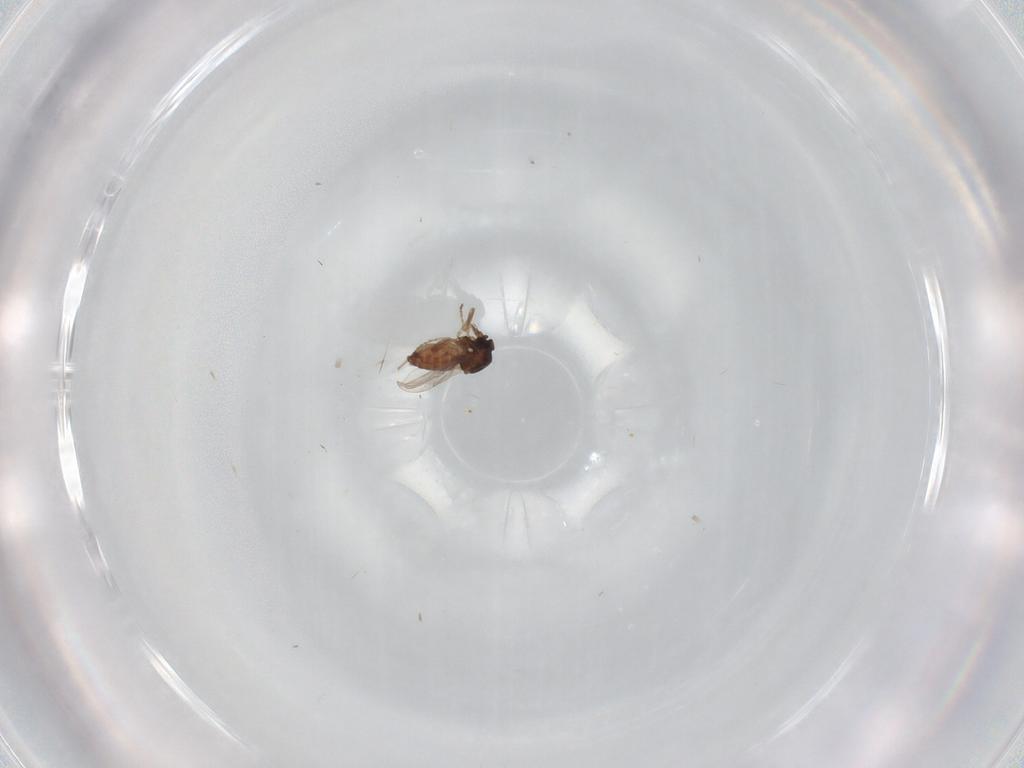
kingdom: Animalia
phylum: Arthropoda
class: Insecta
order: Diptera
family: Ceratopogonidae
